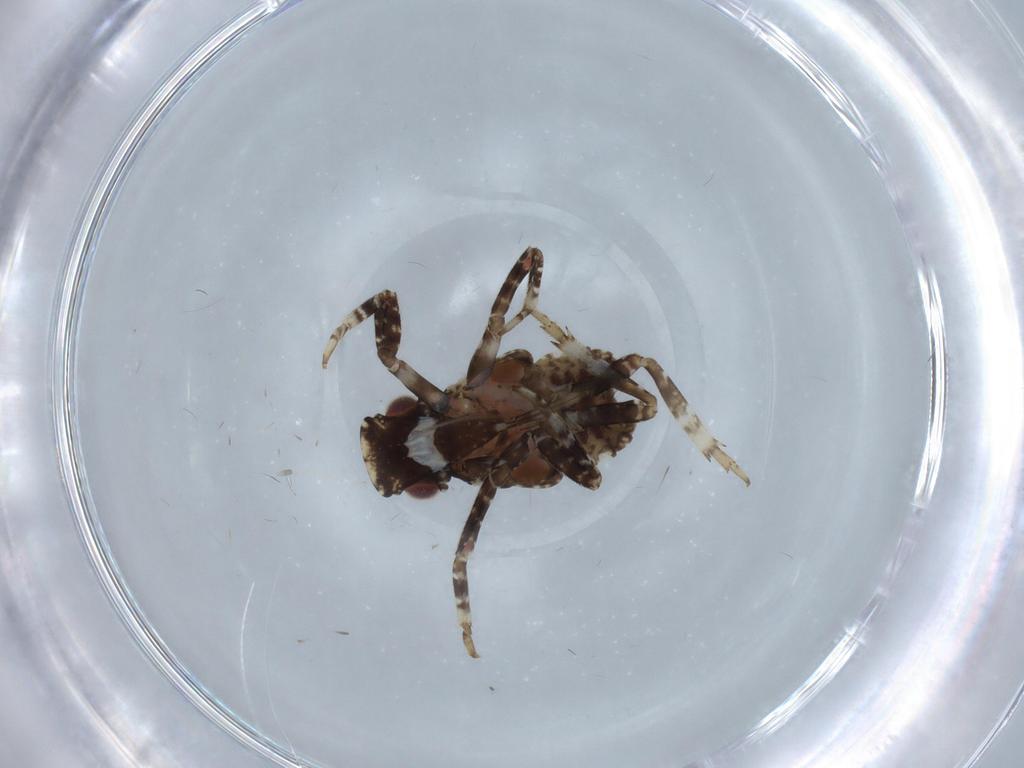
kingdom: Animalia
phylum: Arthropoda
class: Insecta
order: Hemiptera
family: Fulgoridae
